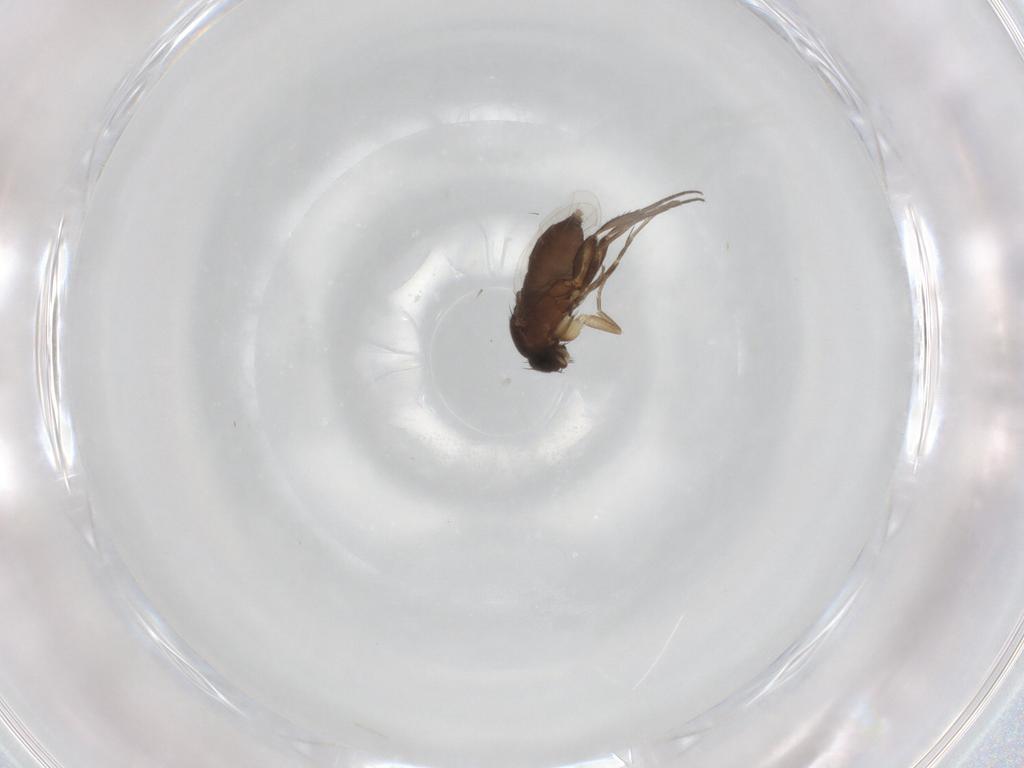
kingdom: Animalia
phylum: Arthropoda
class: Insecta
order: Diptera
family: Phoridae
